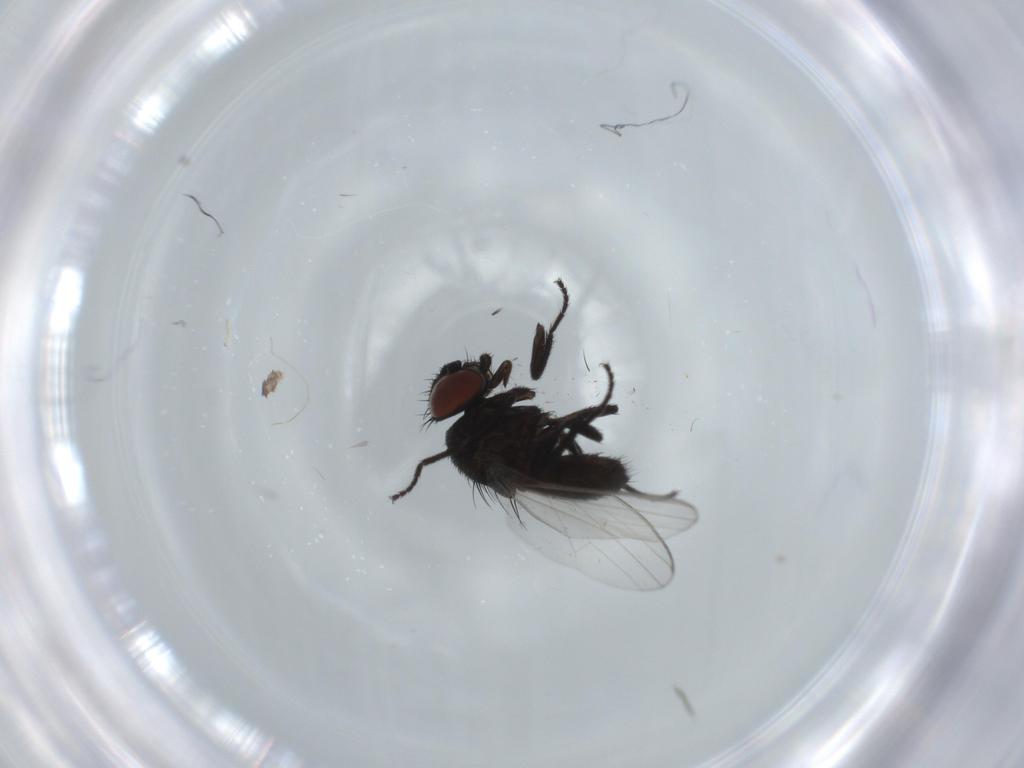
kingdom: Animalia
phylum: Arthropoda
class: Insecta
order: Diptera
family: Milichiidae
